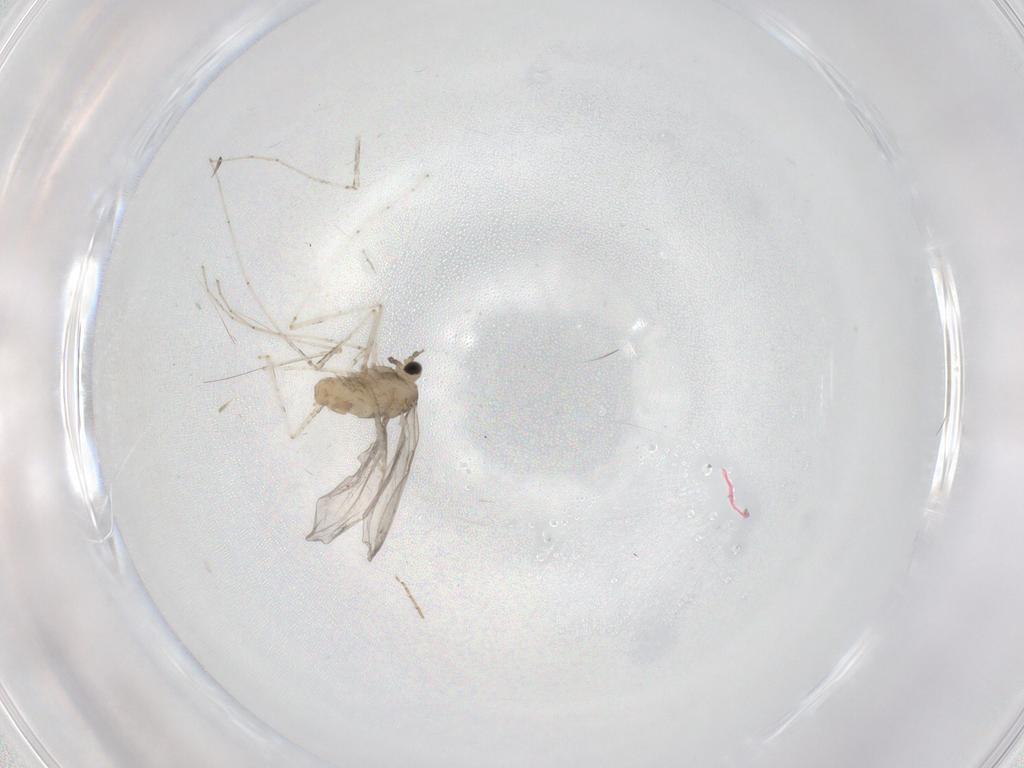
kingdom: Animalia
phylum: Arthropoda
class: Insecta
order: Diptera
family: Cecidomyiidae
